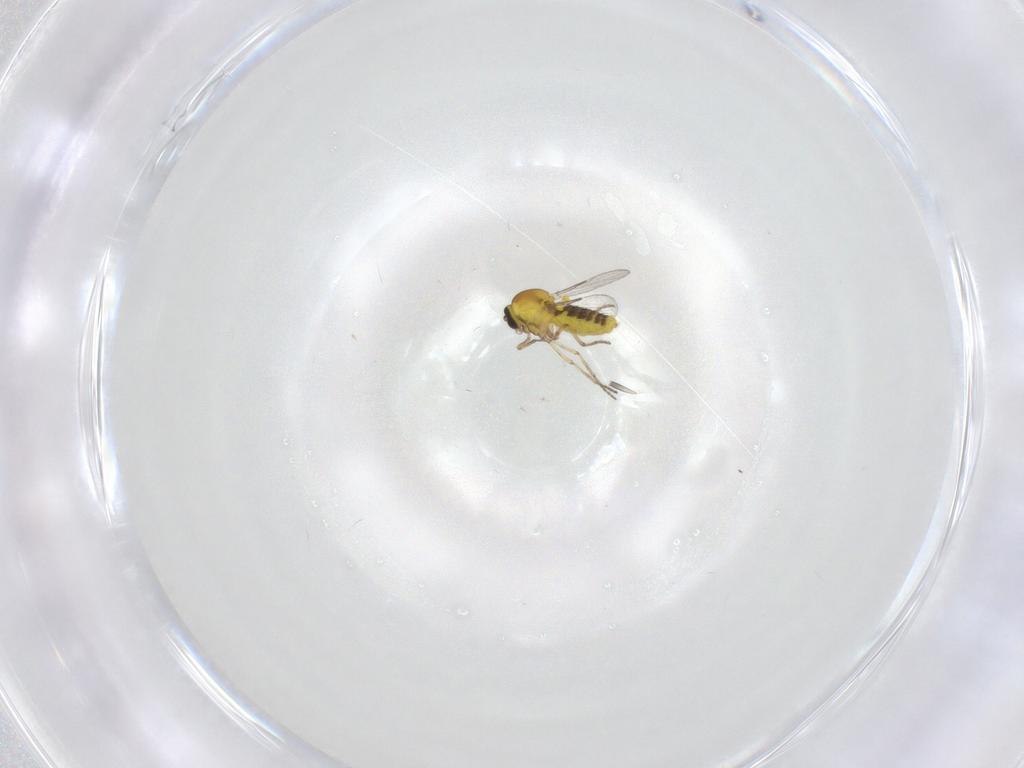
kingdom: Animalia
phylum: Arthropoda
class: Insecta
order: Diptera
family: Ceratopogonidae
